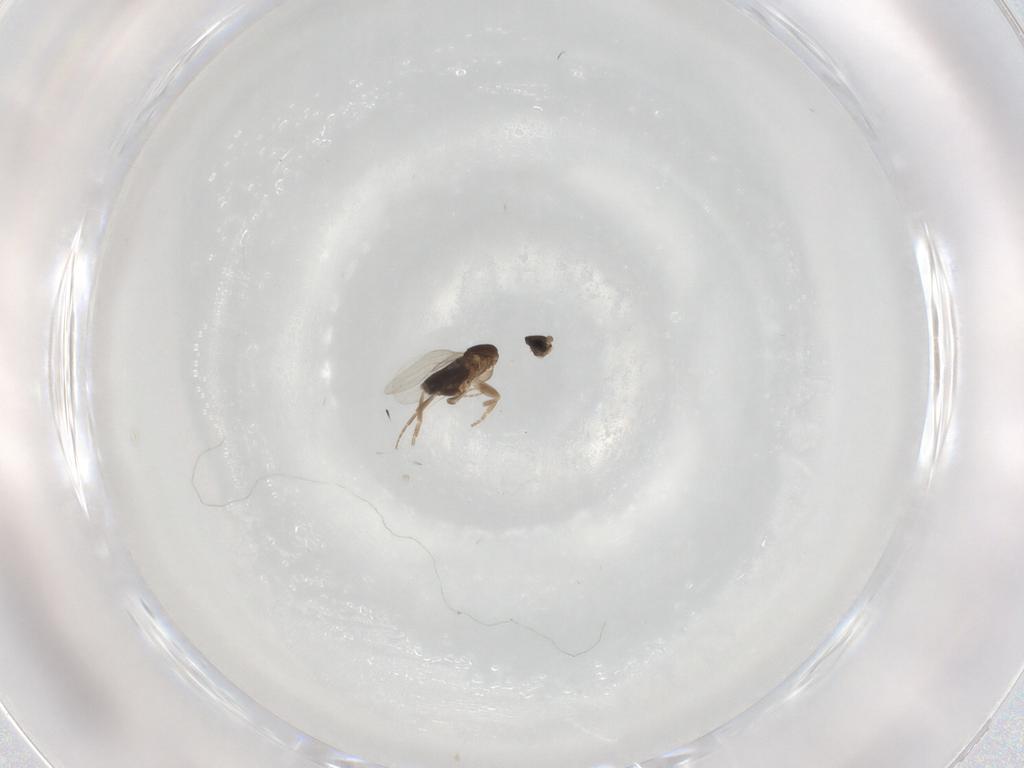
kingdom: Animalia
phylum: Arthropoda
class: Insecta
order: Diptera
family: Phoridae
